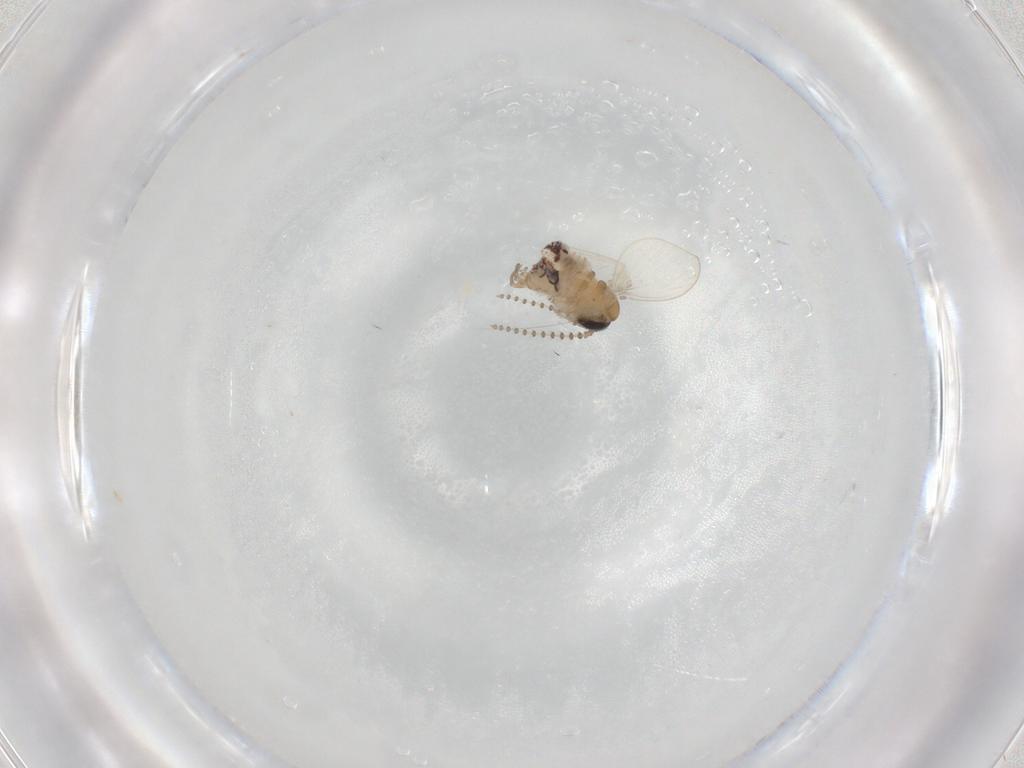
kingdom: Animalia
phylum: Arthropoda
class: Insecta
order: Diptera
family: Psychodidae
